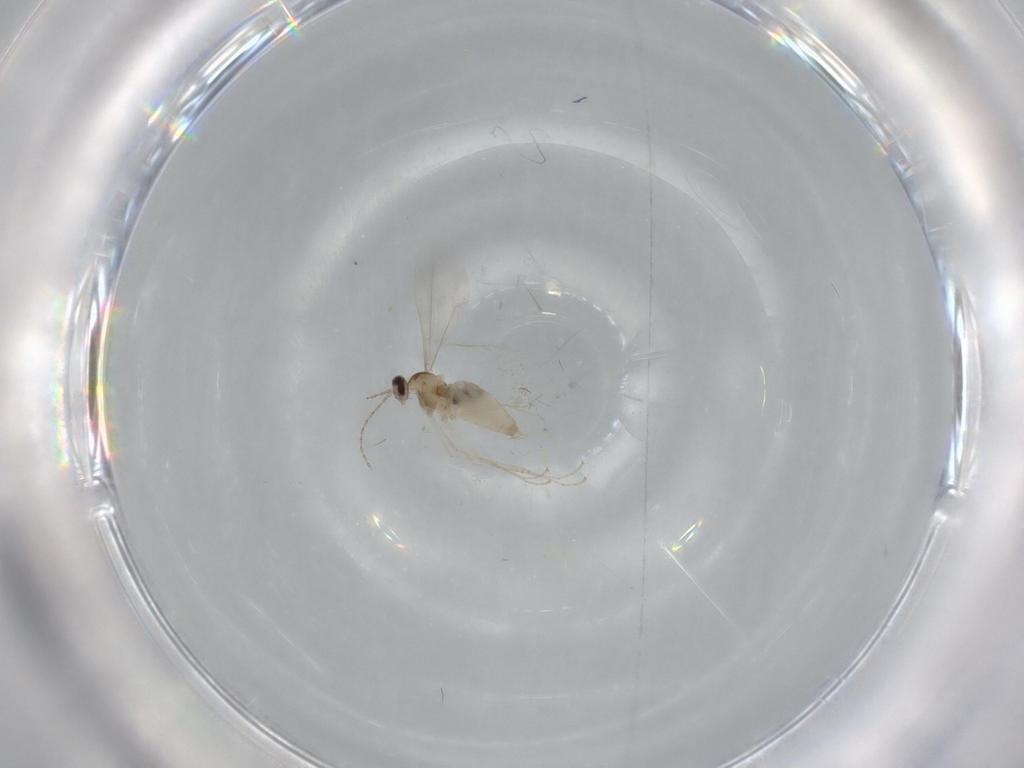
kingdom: Animalia
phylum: Arthropoda
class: Insecta
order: Diptera
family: Cecidomyiidae
